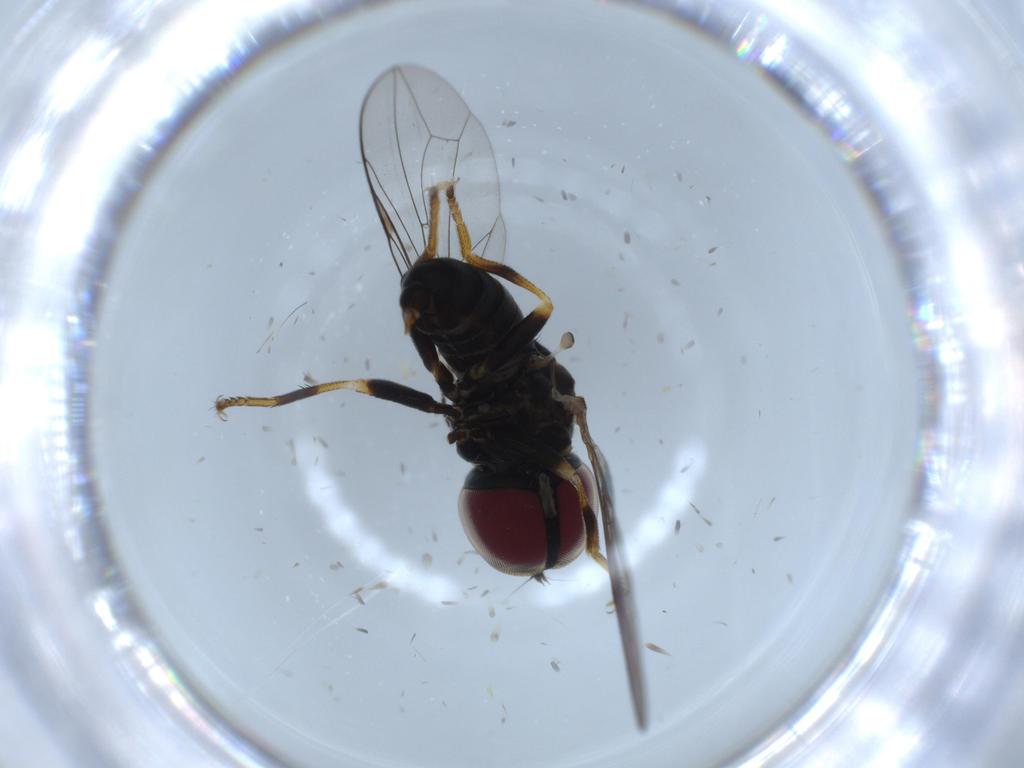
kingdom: Animalia
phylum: Arthropoda
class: Insecta
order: Diptera
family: Pipunculidae
